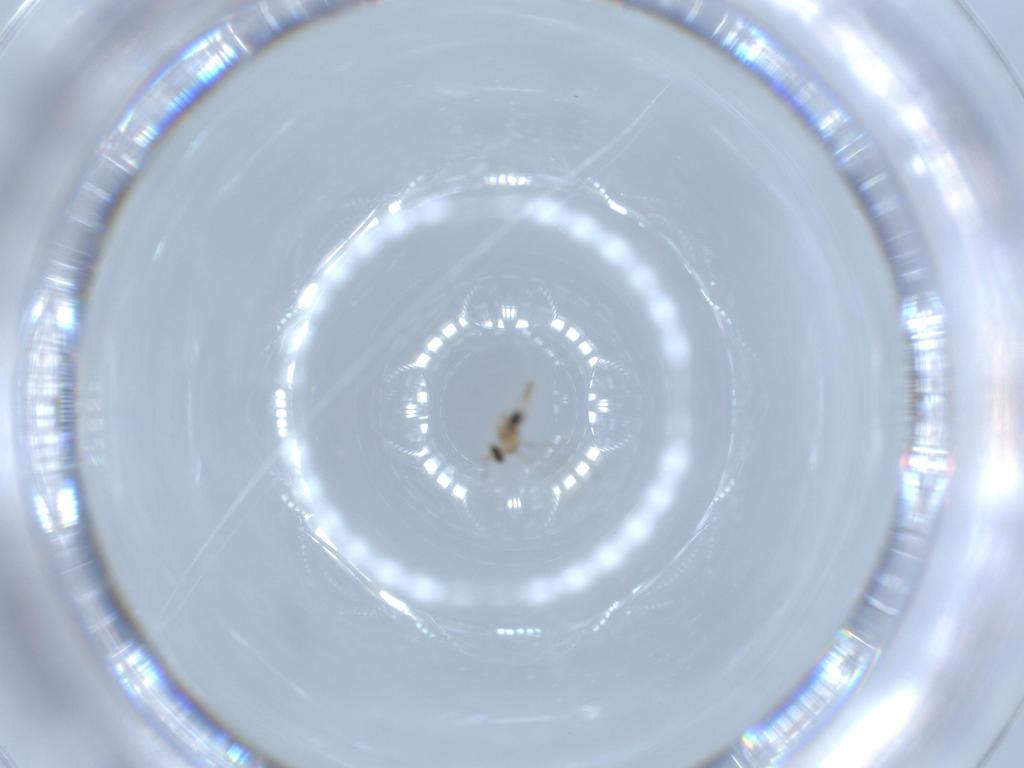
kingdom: Animalia
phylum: Arthropoda
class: Insecta
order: Diptera
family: Cecidomyiidae
